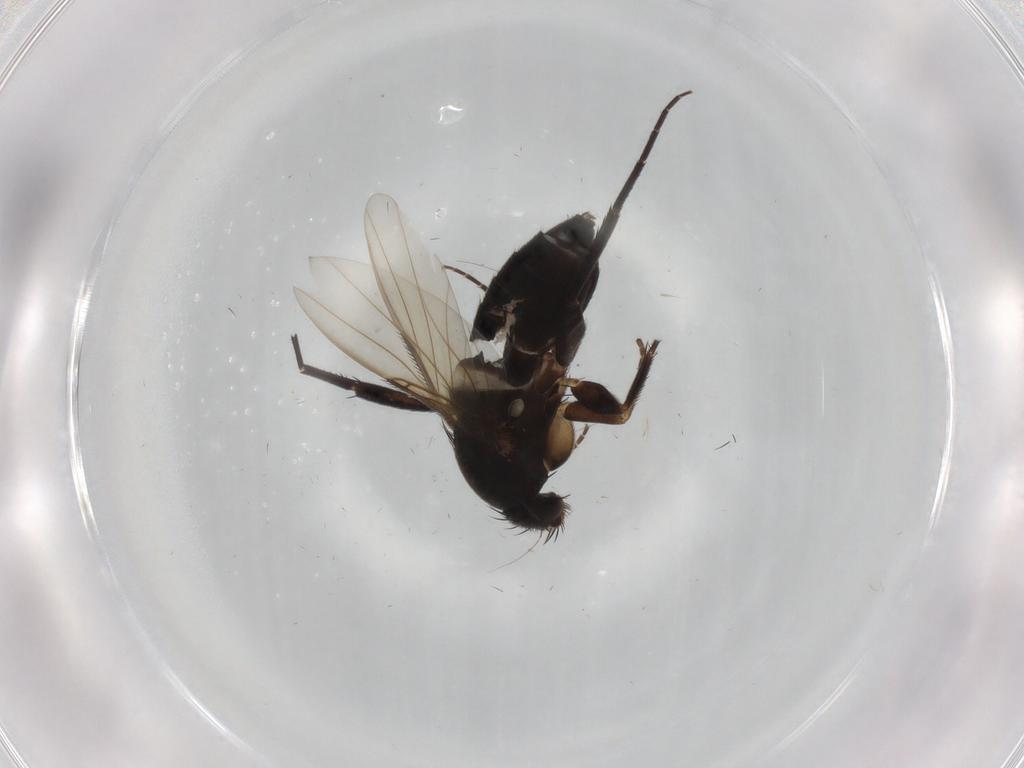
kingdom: Animalia
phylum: Arthropoda
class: Insecta
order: Diptera
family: Phoridae
